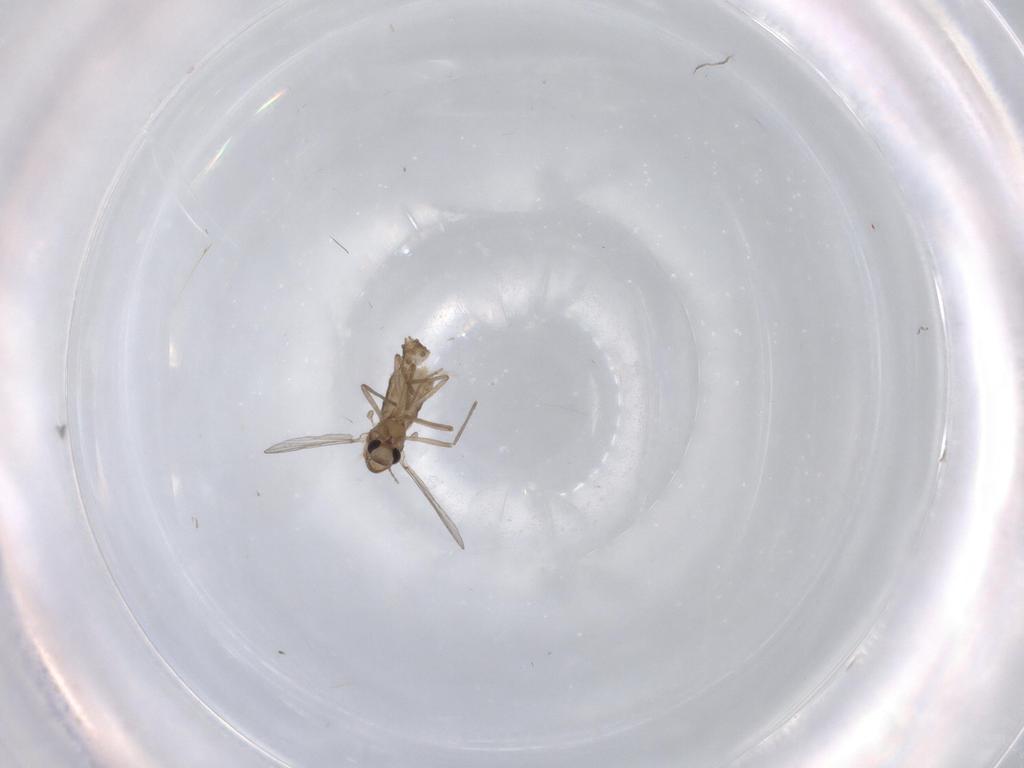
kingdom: Animalia
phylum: Arthropoda
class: Insecta
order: Diptera
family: Chironomidae
